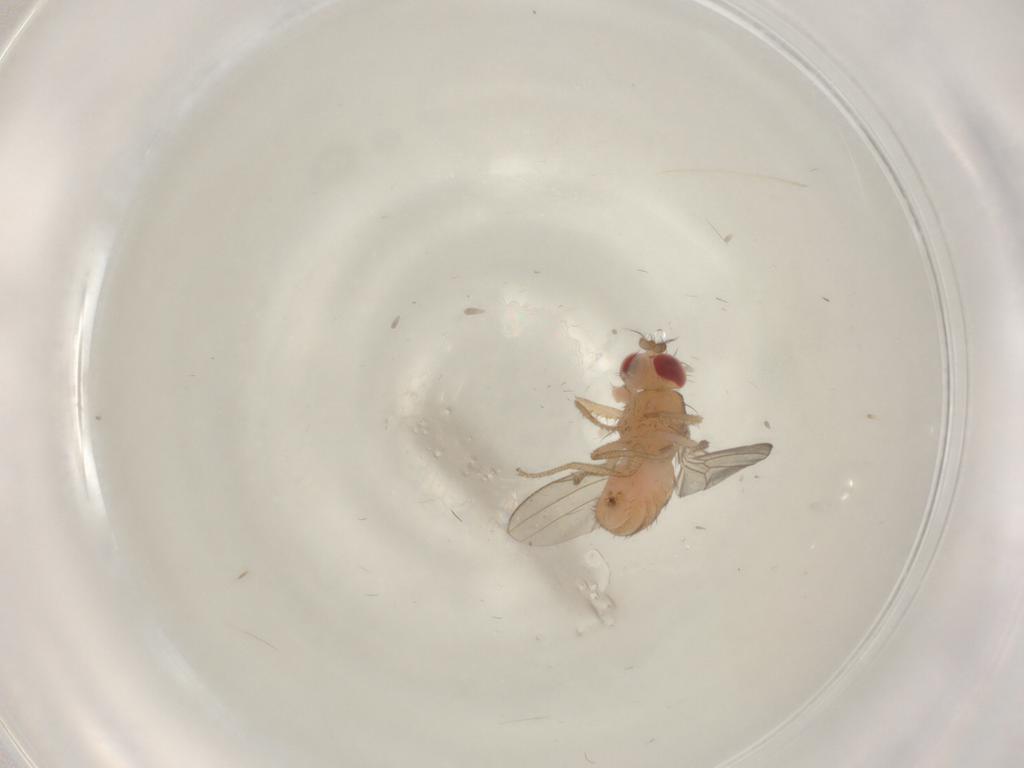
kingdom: Animalia
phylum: Arthropoda
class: Insecta
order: Diptera
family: Drosophilidae
